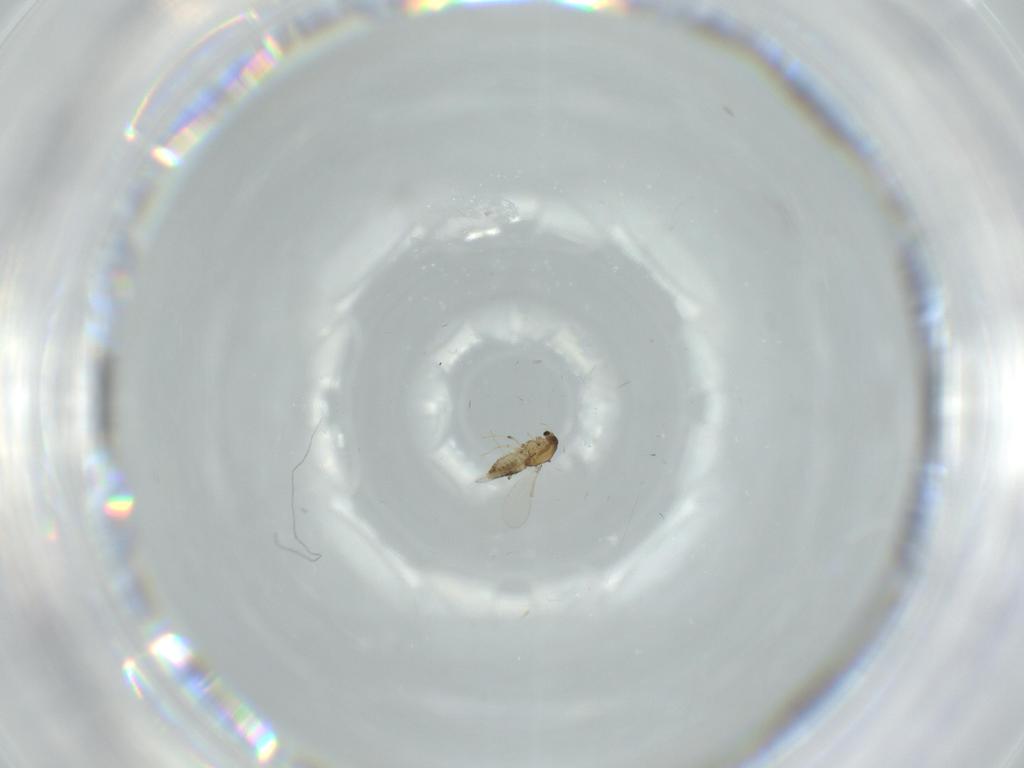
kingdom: Animalia
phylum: Arthropoda
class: Insecta
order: Diptera
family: Chironomidae
